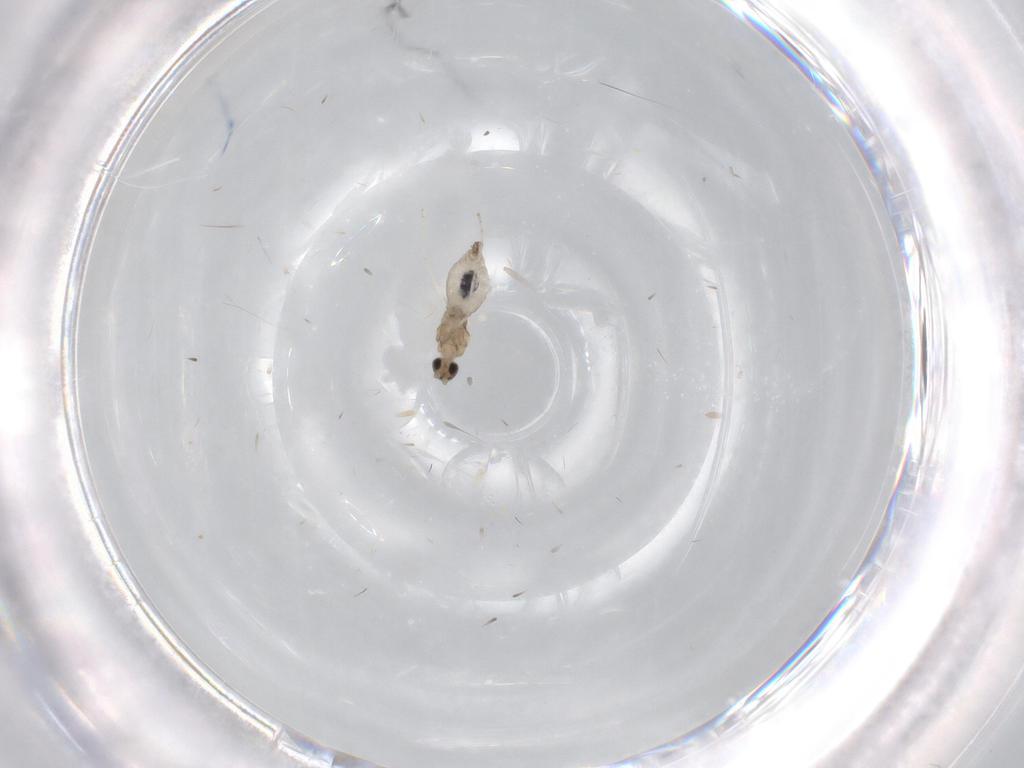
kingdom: Animalia
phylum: Arthropoda
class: Insecta
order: Diptera
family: Cecidomyiidae
